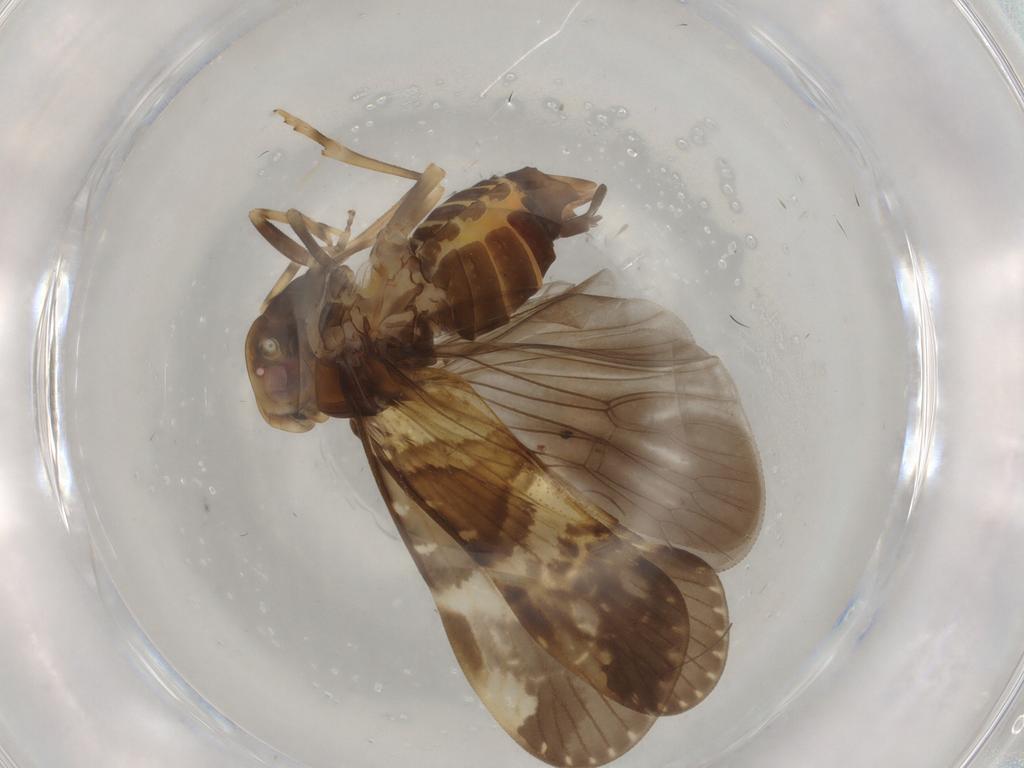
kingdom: Animalia
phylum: Arthropoda
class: Insecta
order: Hemiptera
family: Cixiidae
